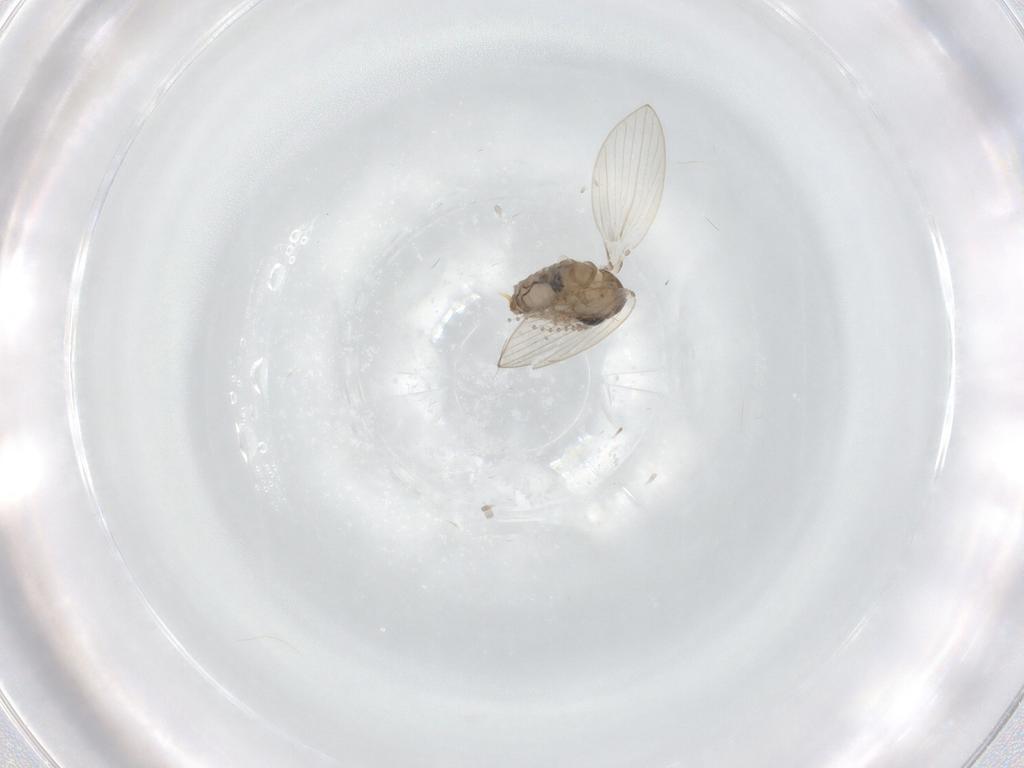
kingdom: Animalia
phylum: Arthropoda
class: Insecta
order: Diptera
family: Psychodidae
